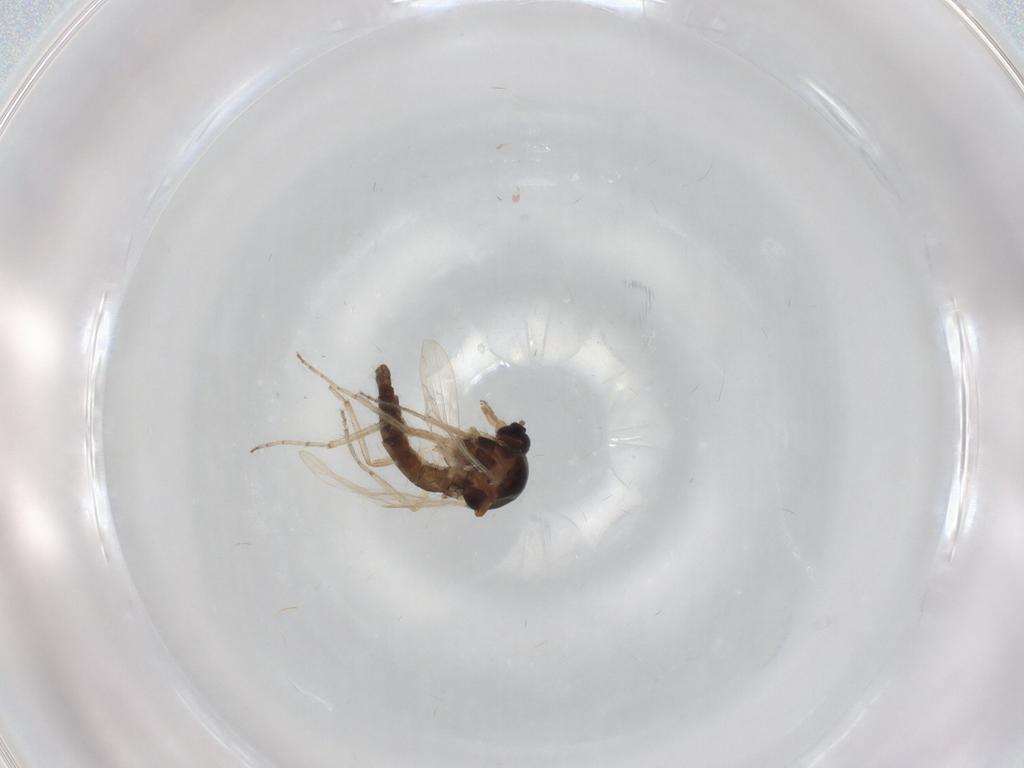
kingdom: Animalia
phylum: Arthropoda
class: Insecta
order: Diptera
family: Ceratopogonidae
